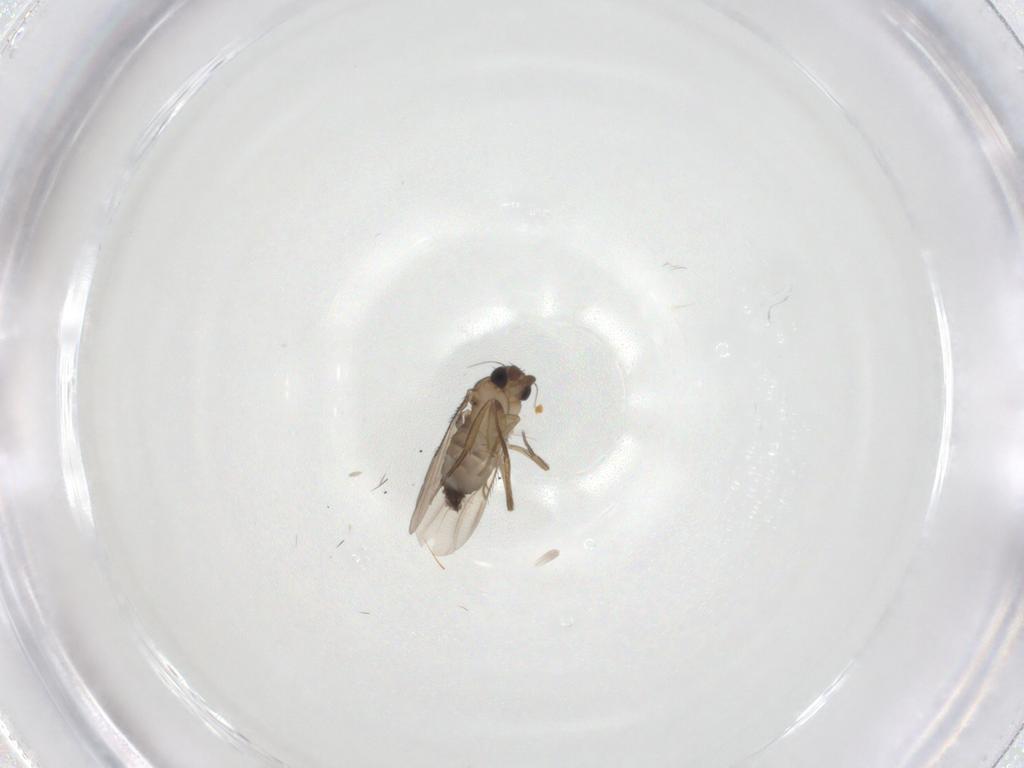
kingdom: Animalia
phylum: Arthropoda
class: Insecta
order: Diptera
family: Phoridae
